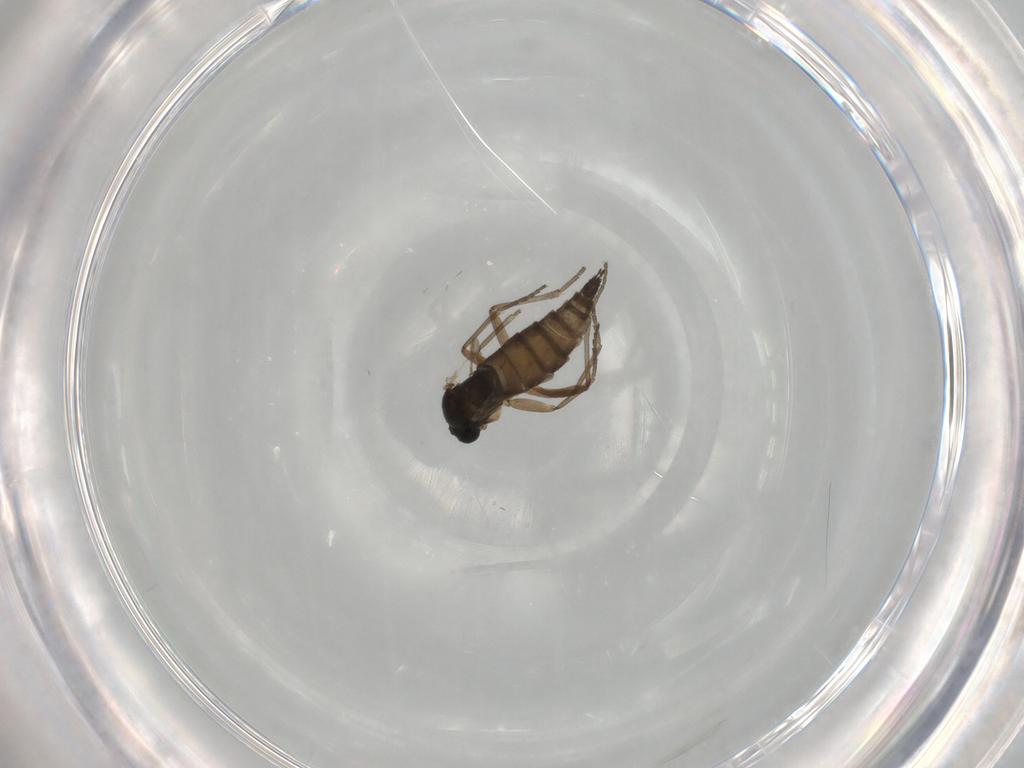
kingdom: Animalia
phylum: Arthropoda
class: Insecta
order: Diptera
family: Sciaridae
